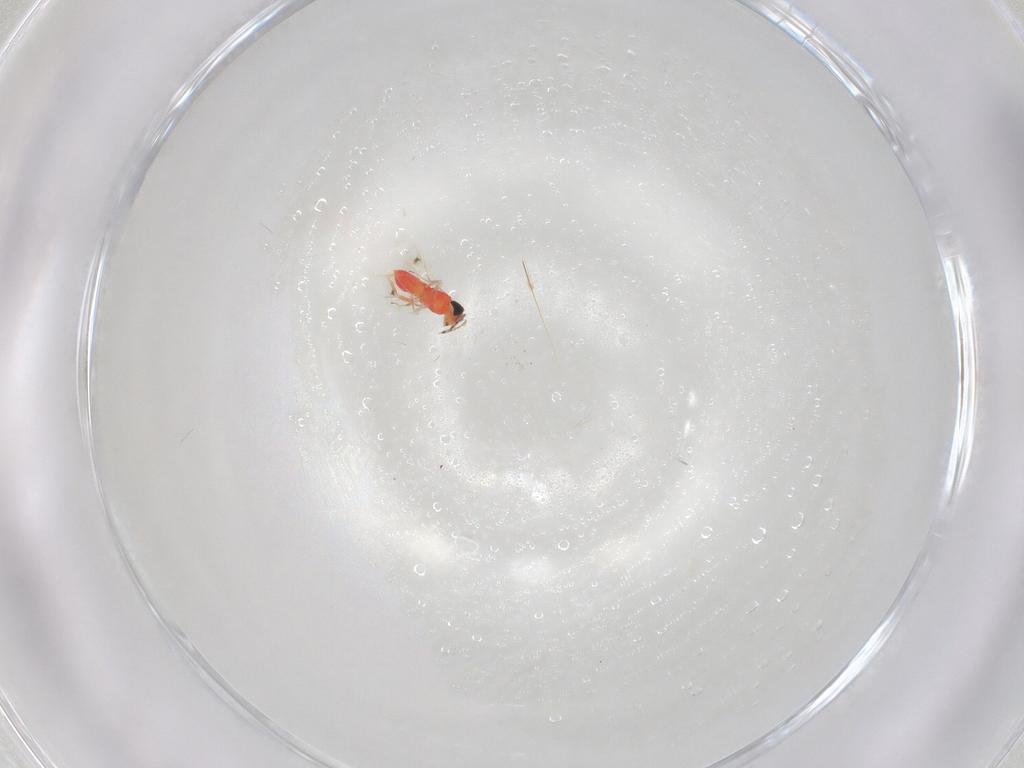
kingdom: Animalia
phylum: Arthropoda
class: Insecta
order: Hymenoptera
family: Trichogrammatidae
